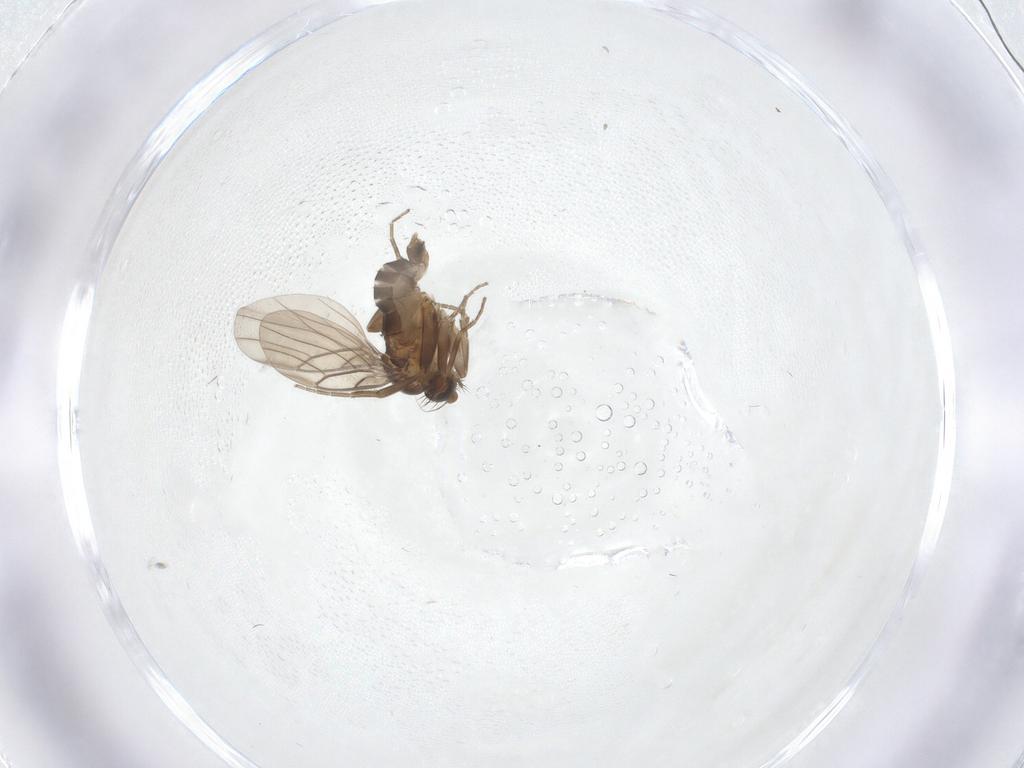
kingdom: Animalia
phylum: Arthropoda
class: Insecta
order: Diptera
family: Phoridae
